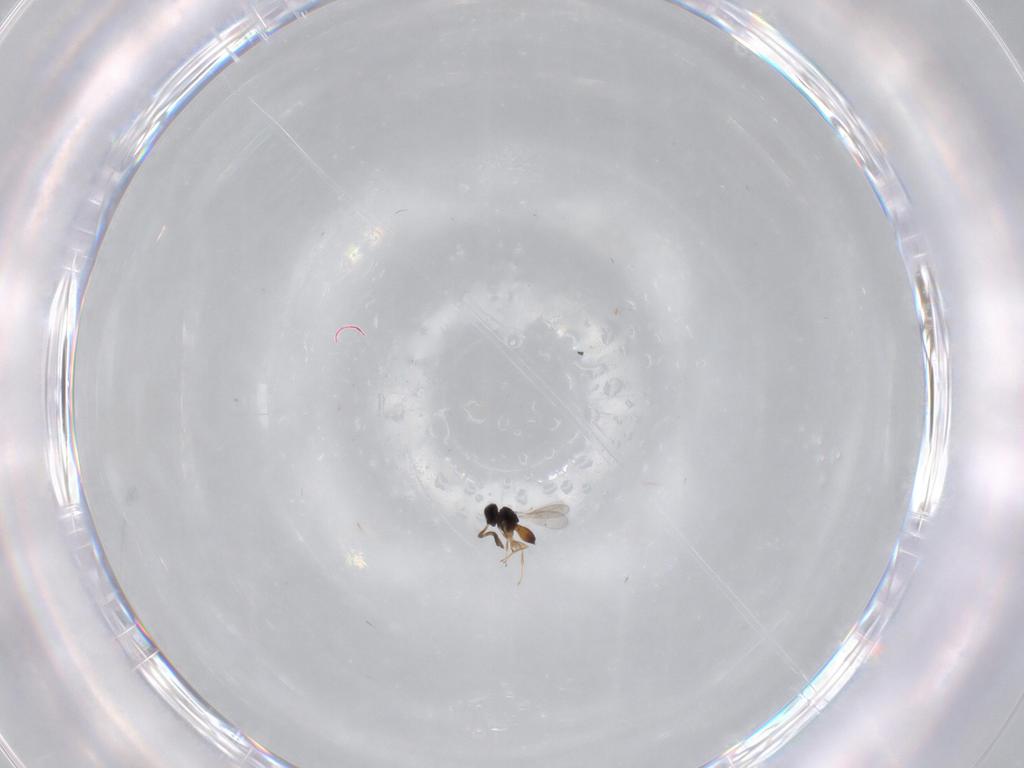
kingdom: Animalia
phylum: Arthropoda
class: Insecta
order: Hymenoptera
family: Scelionidae
